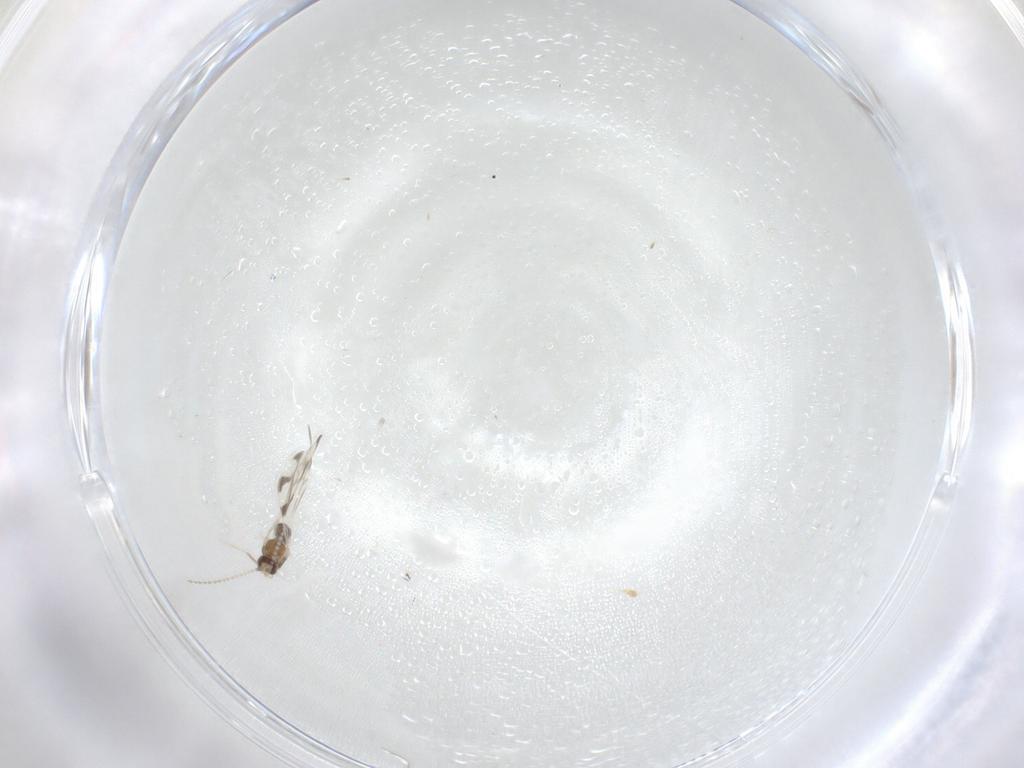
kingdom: Animalia
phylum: Arthropoda
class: Insecta
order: Diptera
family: Cecidomyiidae
